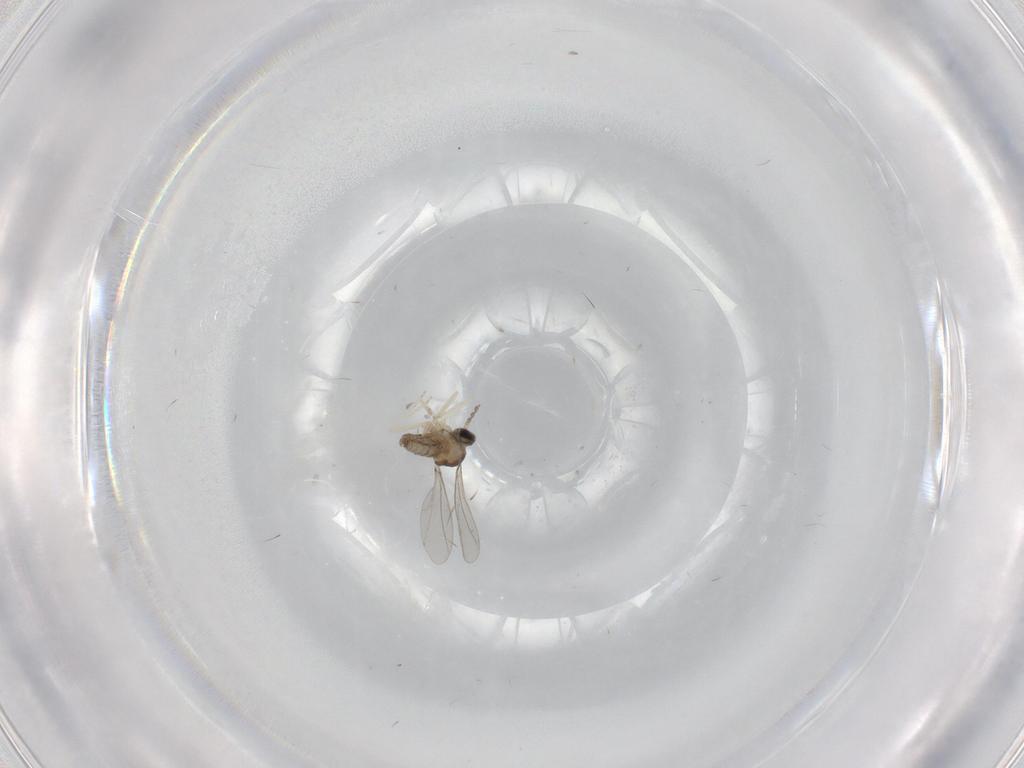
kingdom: Animalia
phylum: Arthropoda
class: Insecta
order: Diptera
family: Cecidomyiidae
